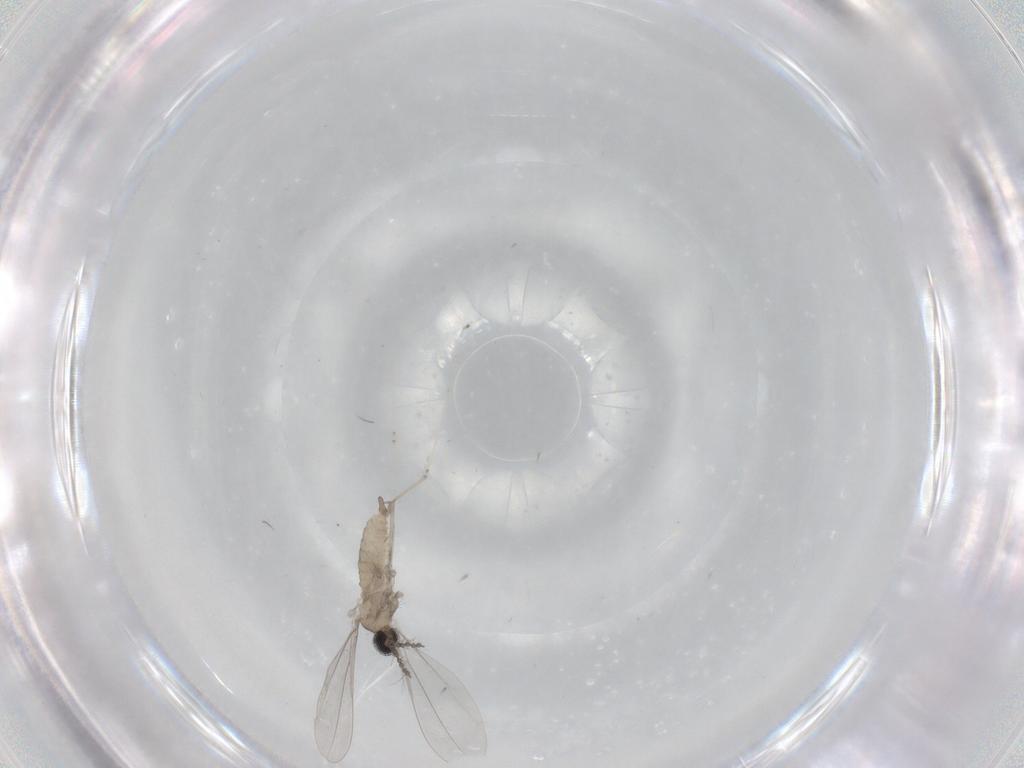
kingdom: Animalia
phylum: Arthropoda
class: Insecta
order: Diptera
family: Cecidomyiidae
